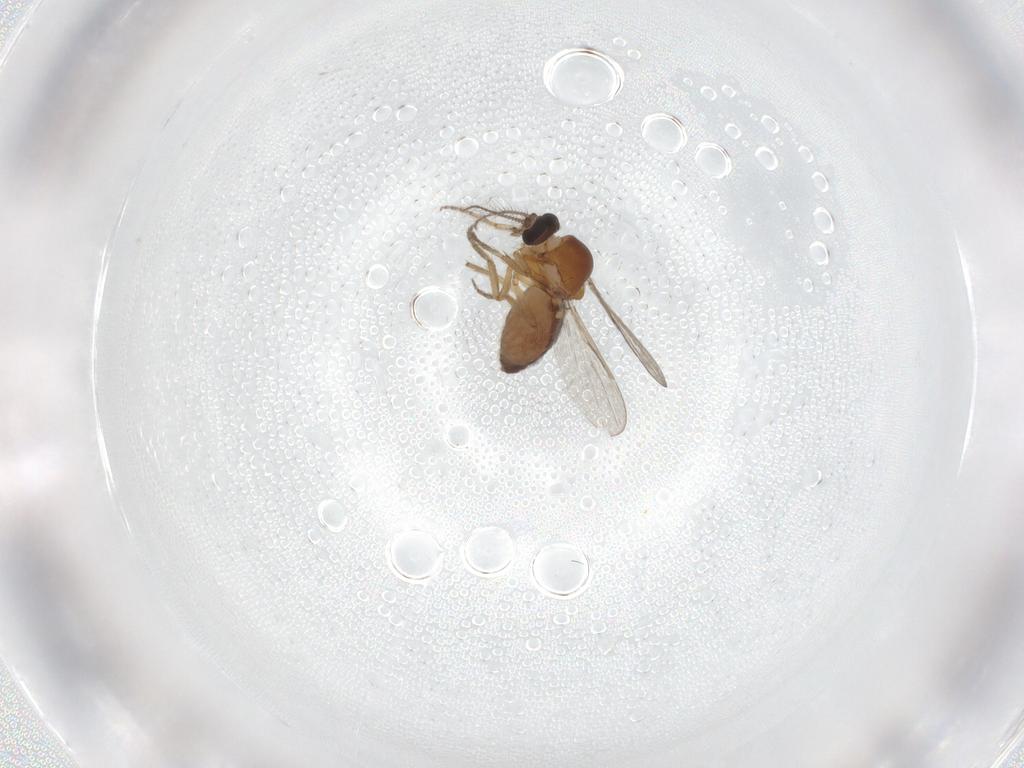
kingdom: Animalia
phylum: Arthropoda
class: Insecta
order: Diptera
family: Ceratopogonidae
